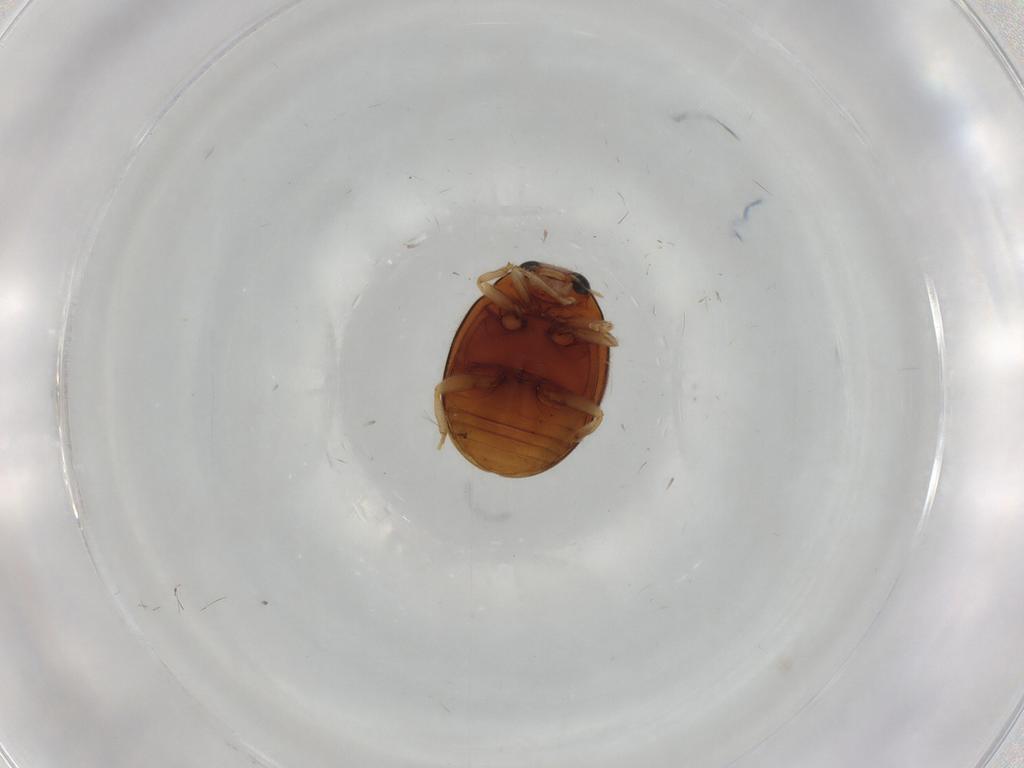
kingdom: Animalia
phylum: Arthropoda
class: Insecta
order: Coleoptera
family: Coccinellidae
